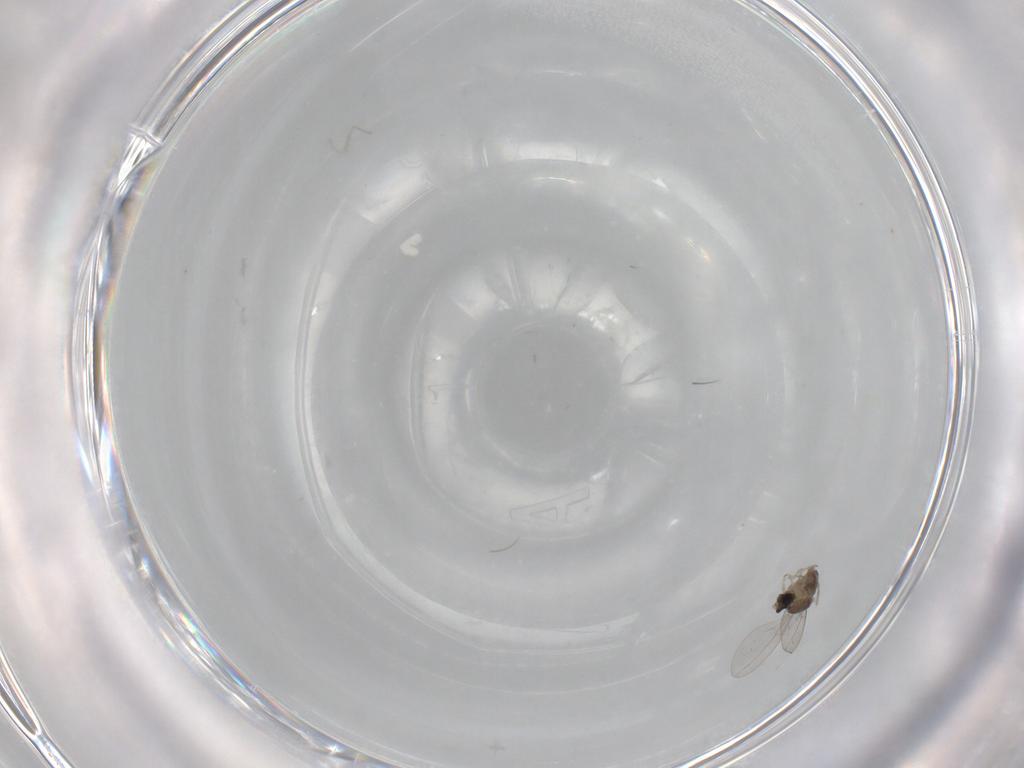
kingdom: Animalia
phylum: Arthropoda
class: Insecta
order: Diptera
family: Cecidomyiidae
